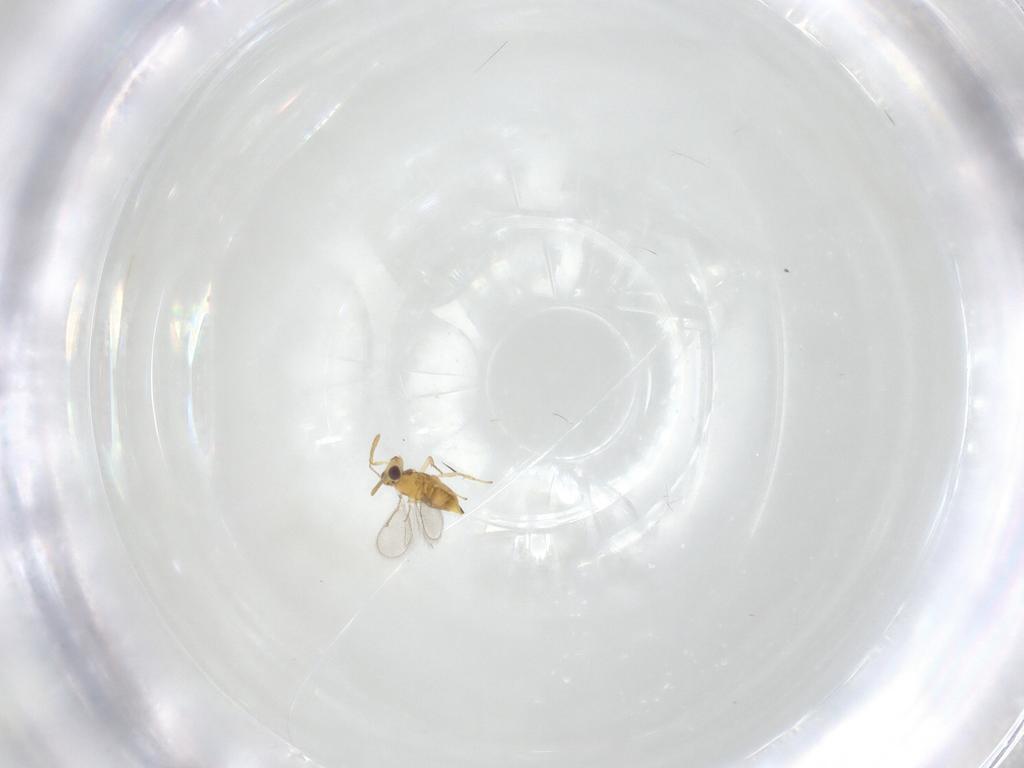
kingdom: Animalia
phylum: Arthropoda
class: Insecta
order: Hymenoptera
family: Aphelinidae
